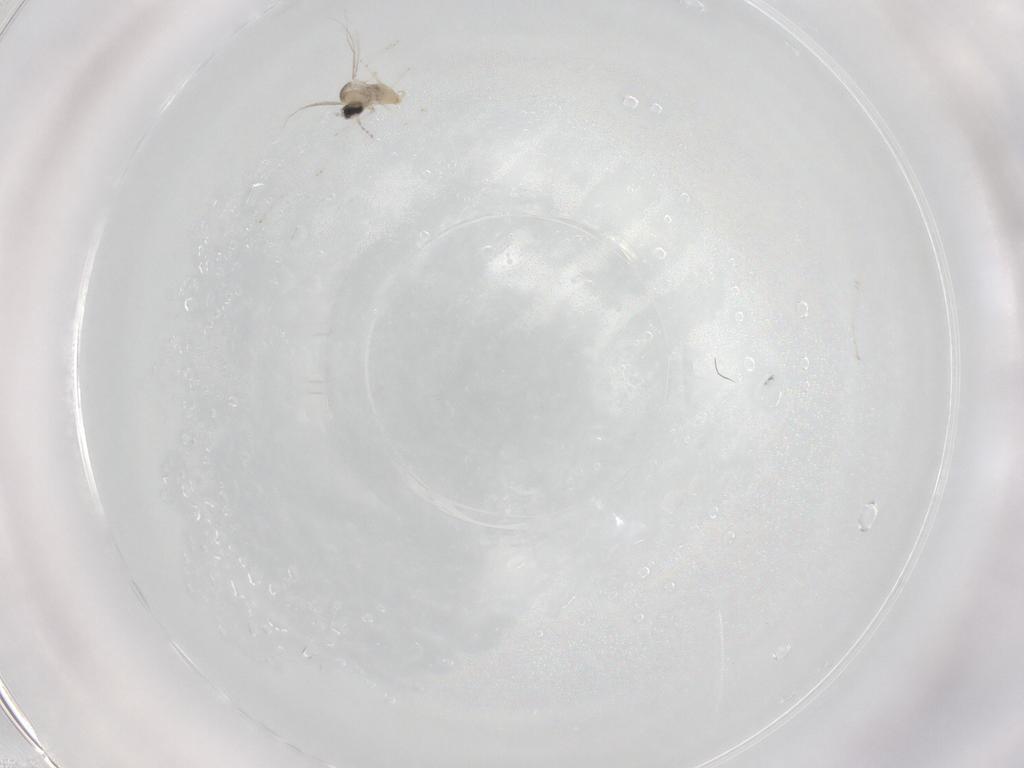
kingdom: Animalia
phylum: Arthropoda
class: Insecta
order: Diptera
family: Cecidomyiidae
